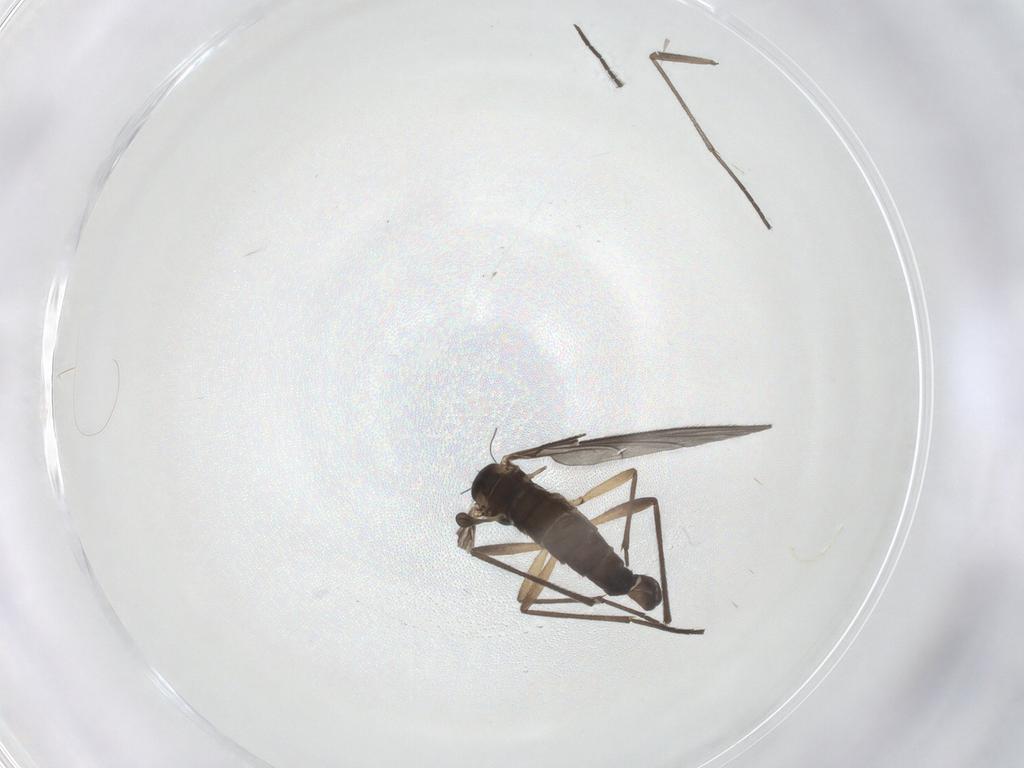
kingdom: Animalia
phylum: Arthropoda
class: Insecta
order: Diptera
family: Sciaridae
